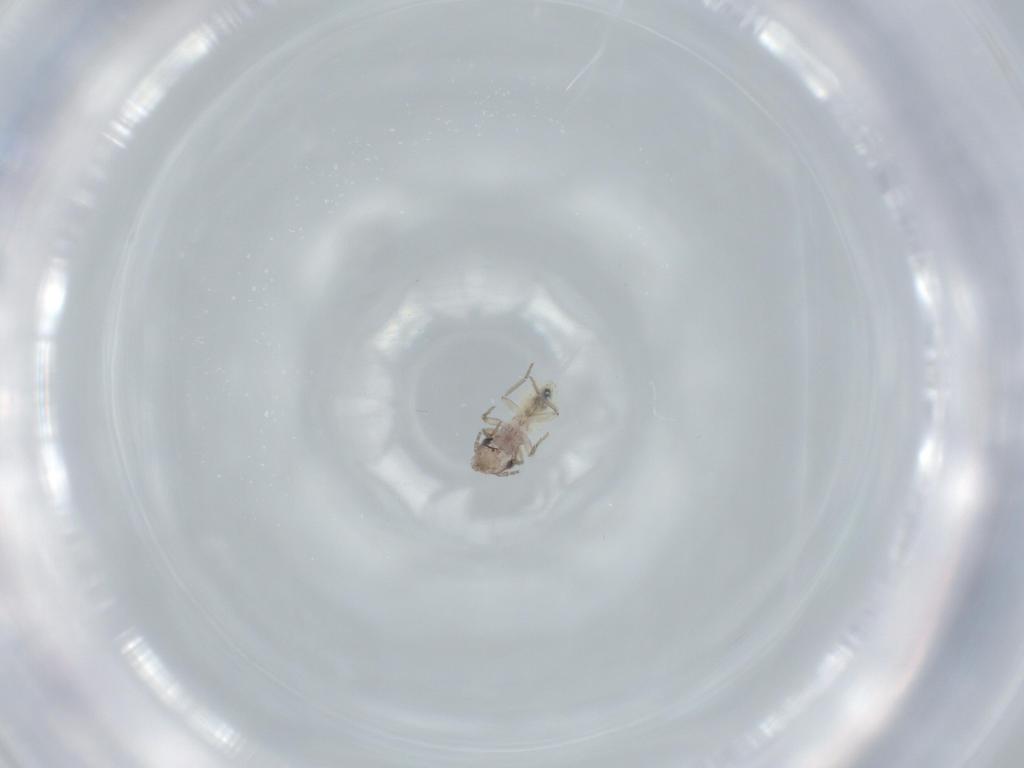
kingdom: Animalia
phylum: Arthropoda
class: Insecta
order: Psocodea
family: Lepidopsocidae
